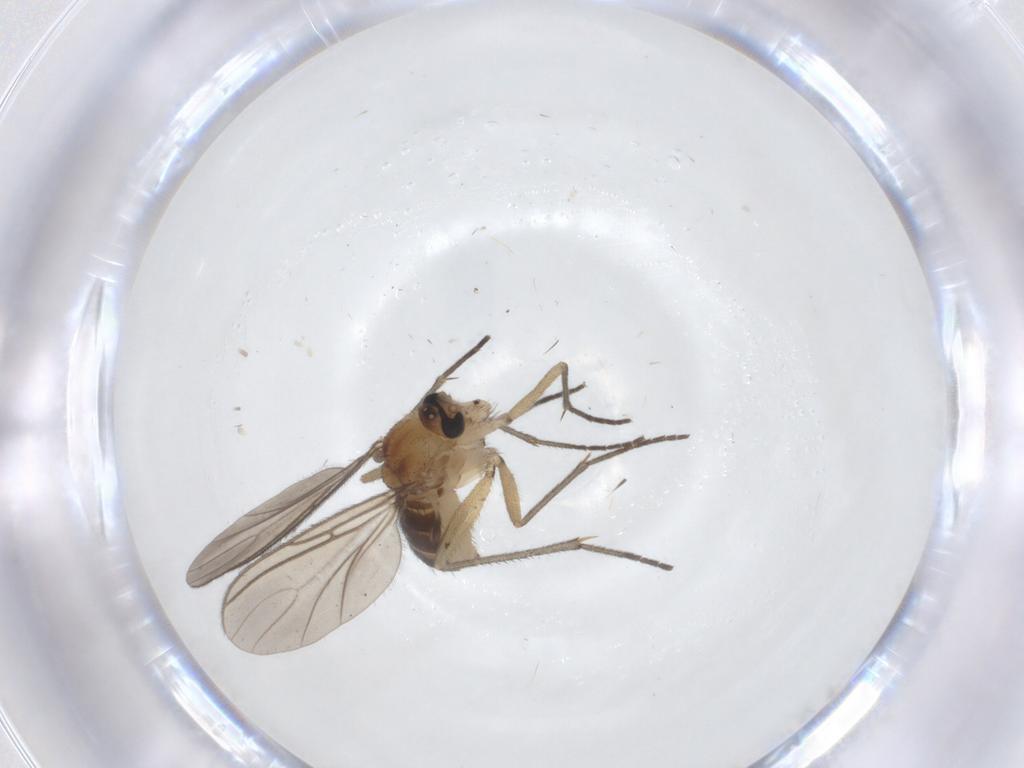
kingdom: Animalia
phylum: Arthropoda
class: Insecta
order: Diptera
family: Sciaridae
